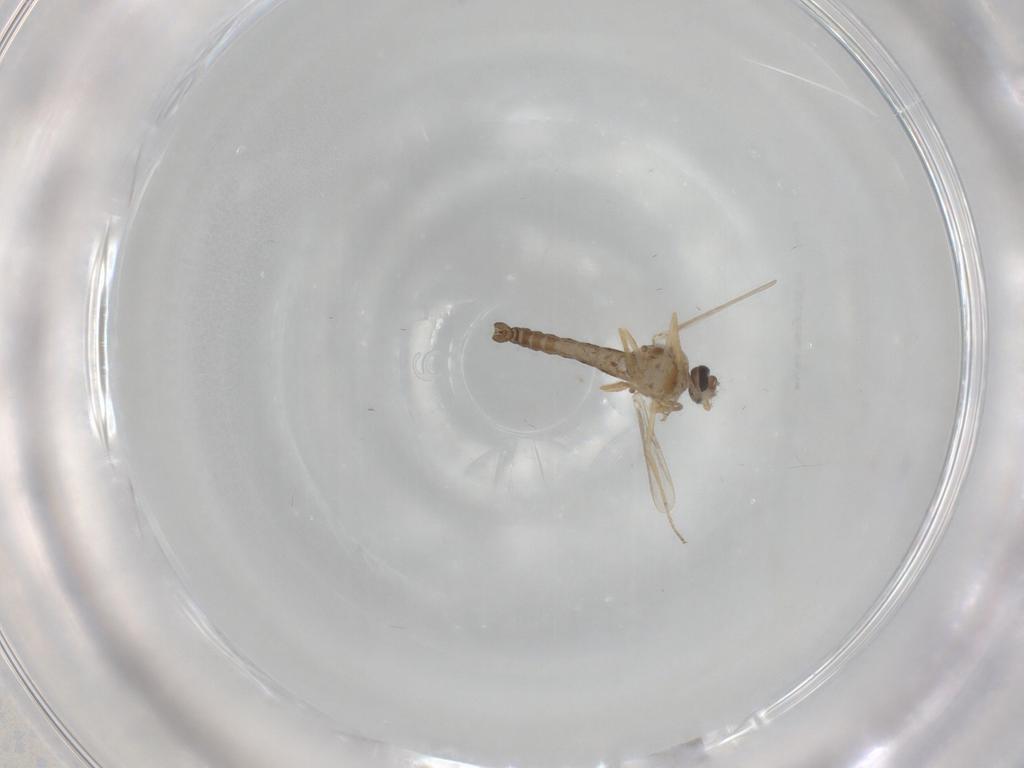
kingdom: Animalia
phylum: Arthropoda
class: Insecta
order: Diptera
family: Ceratopogonidae
